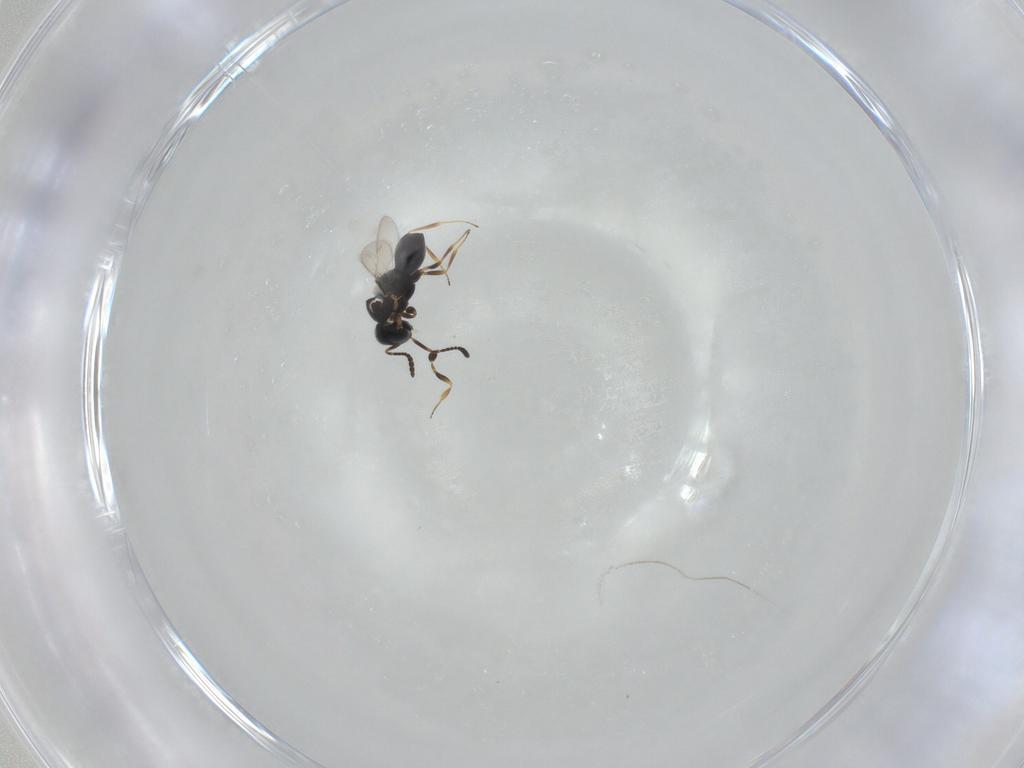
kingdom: Animalia
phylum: Arthropoda
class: Insecta
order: Hymenoptera
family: Scelionidae
